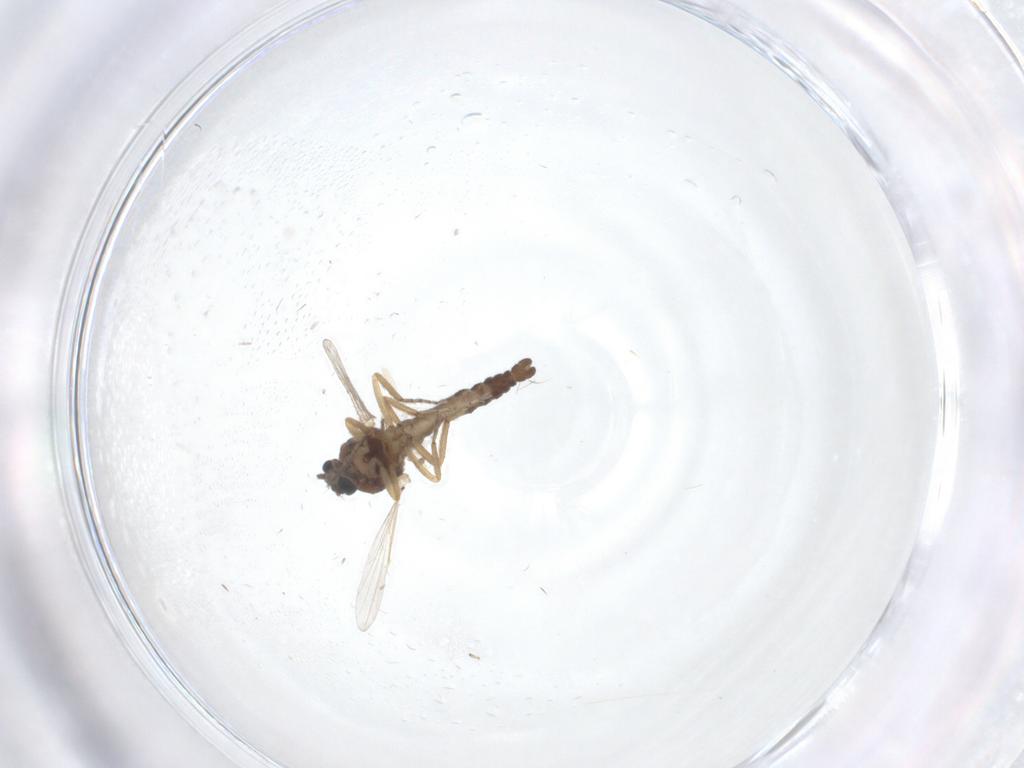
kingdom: Animalia
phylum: Arthropoda
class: Insecta
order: Diptera
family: Ceratopogonidae
